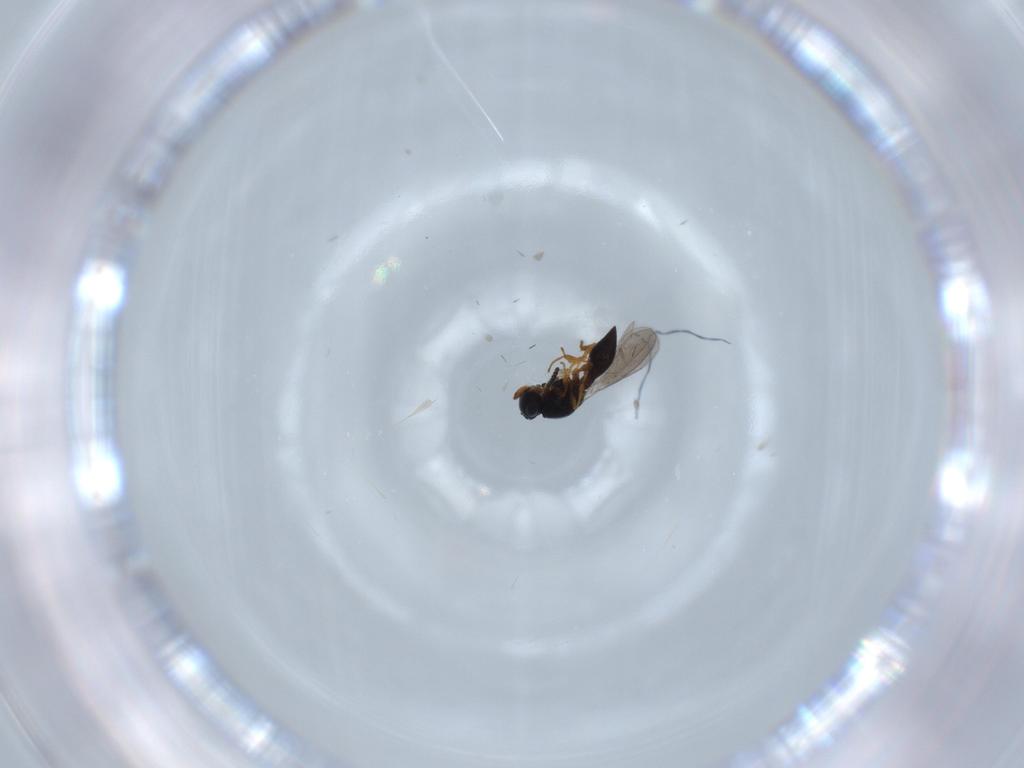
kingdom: Animalia
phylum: Arthropoda
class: Insecta
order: Hymenoptera
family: Platygastridae
